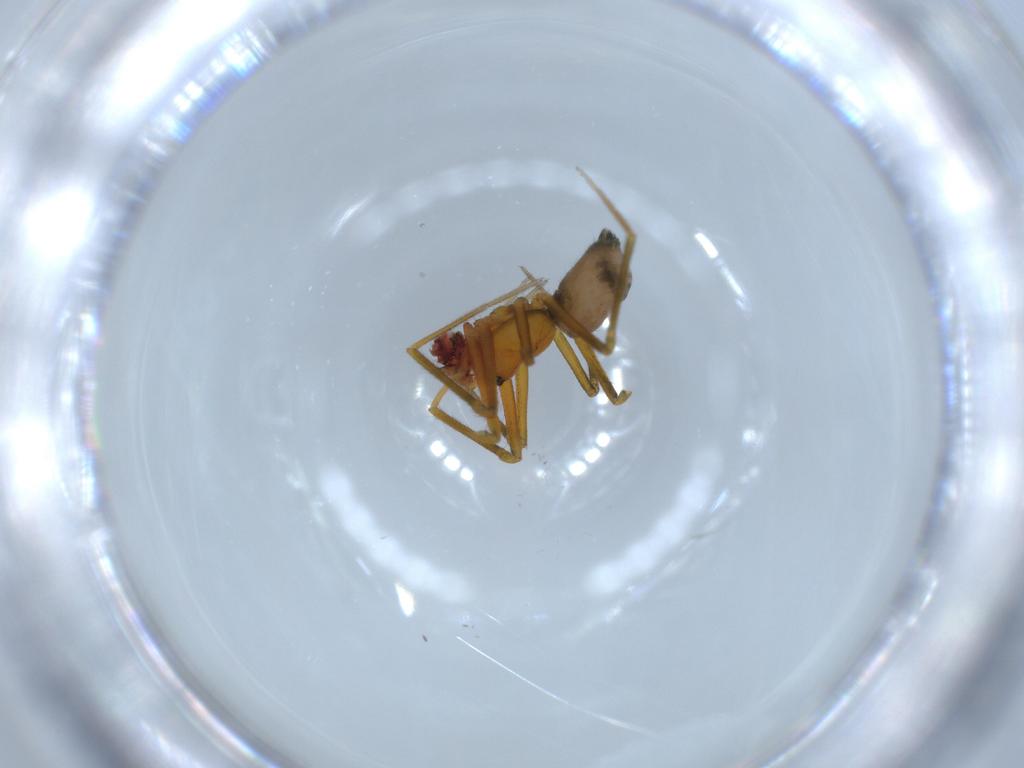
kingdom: Animalia
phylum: Arthropoda
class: Arachnida
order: Araneae
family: Linyphiidae
